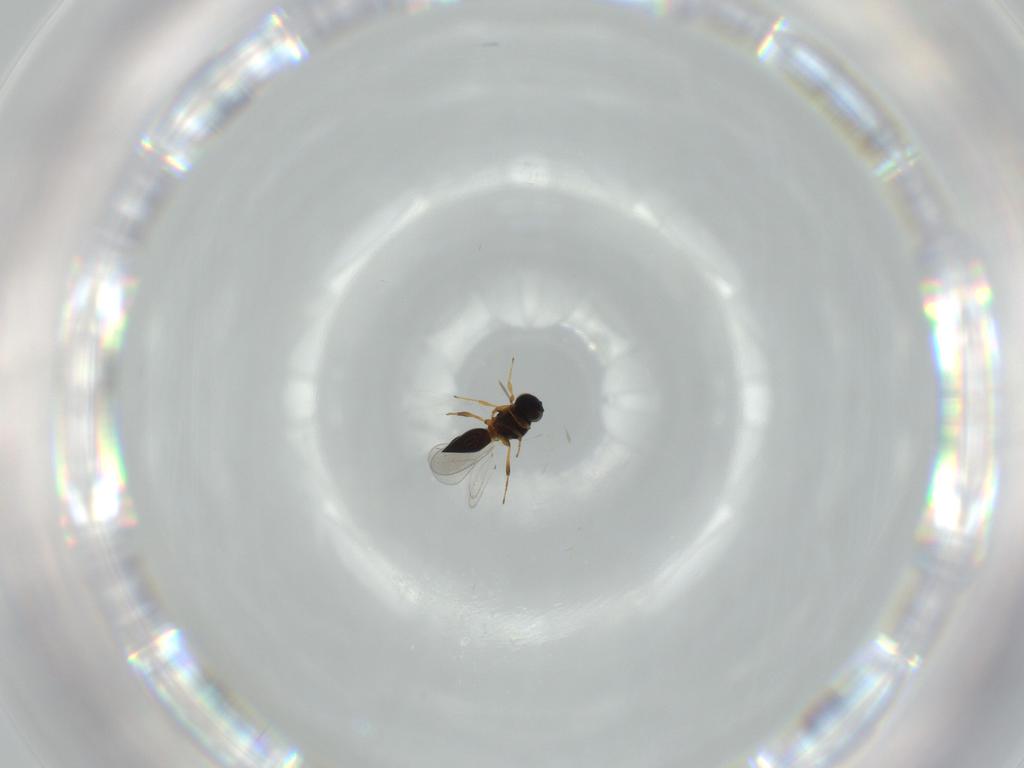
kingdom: Animalia
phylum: Arthropoda
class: Insecta
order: Hymenoptera
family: Platygastridae
